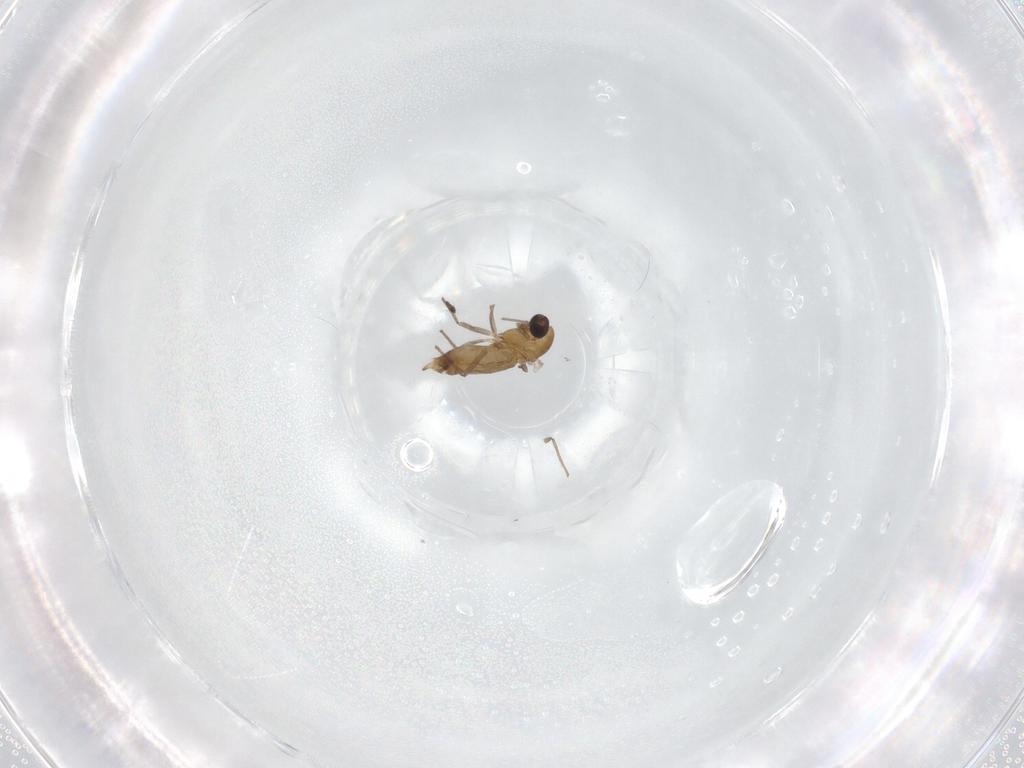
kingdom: Animalia
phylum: Arthropoda
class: Insecta
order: Diptera
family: Chironomidae
